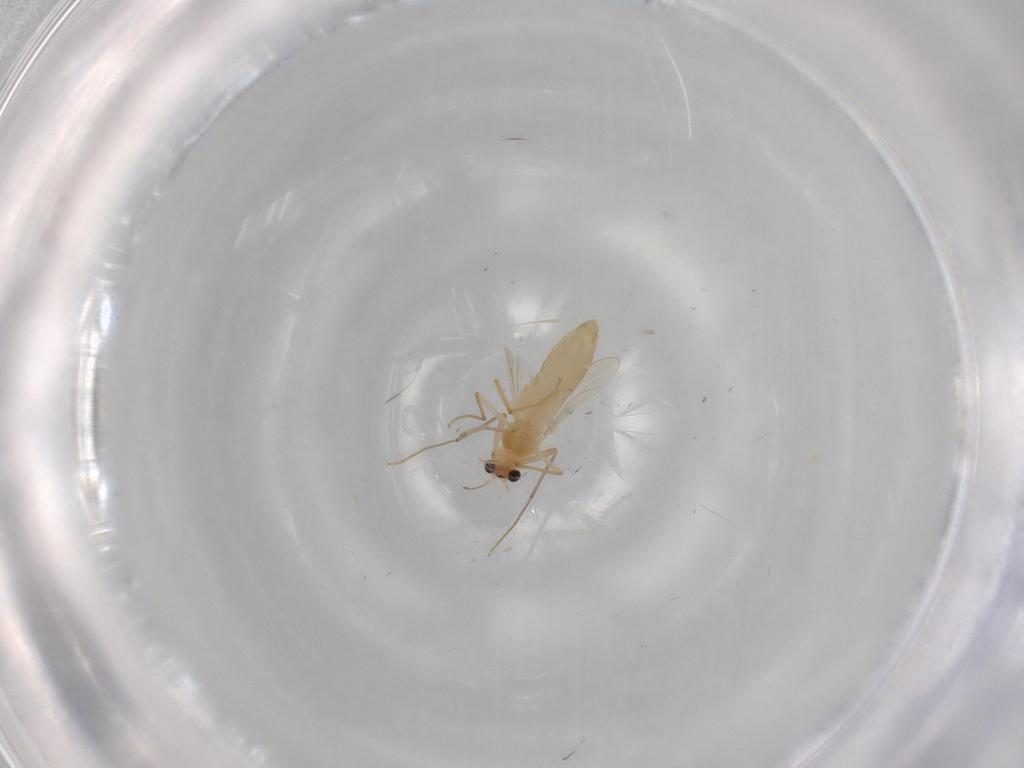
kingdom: Animalia
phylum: Arthropoda
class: Insecta
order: Diptera
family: Chironomidae
